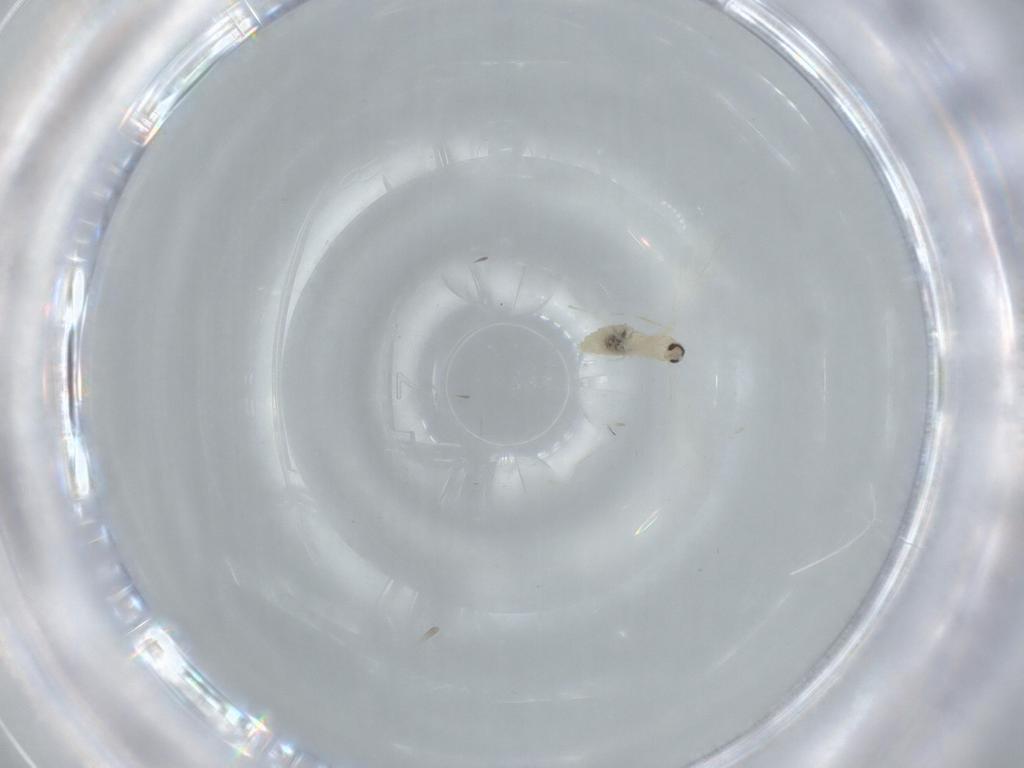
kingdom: Animalia
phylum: Arthropoda
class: Insecta
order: Diptera
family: Cecidomyiidae
